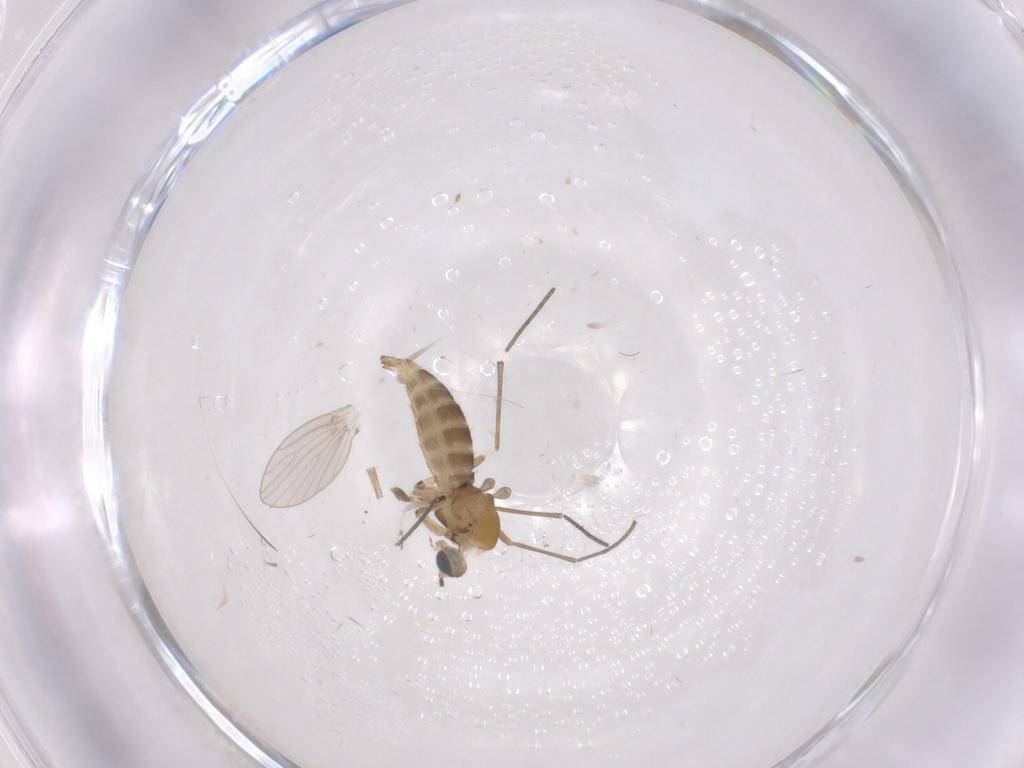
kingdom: Animalia
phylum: Arthropoda
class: Insecta
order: Diptera
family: Sciaridae
